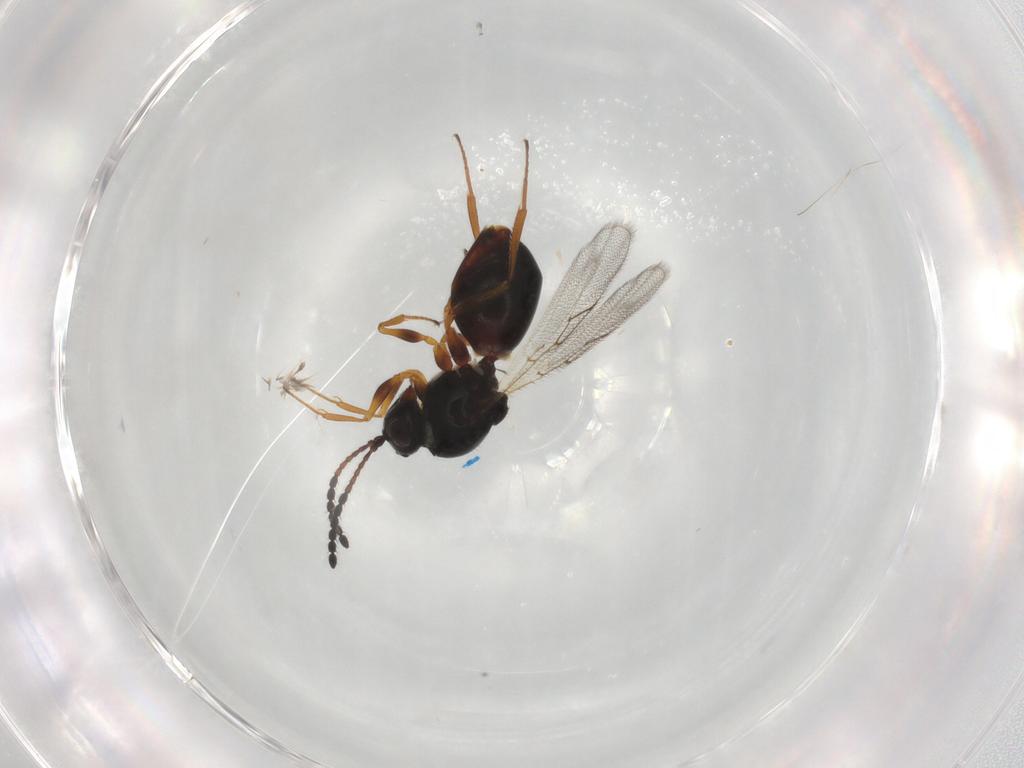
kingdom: Animalia
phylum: Arthropoda
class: Insecta
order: Hymenoptera
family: Figitidae
